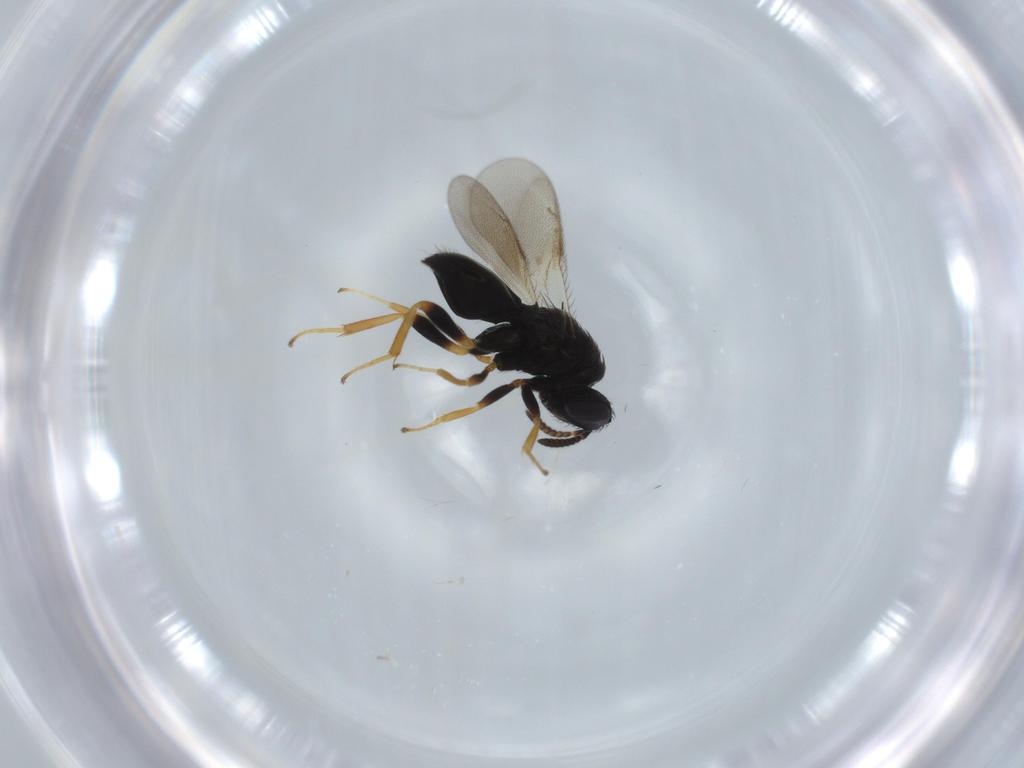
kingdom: Animalia
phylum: Arthropoda
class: Insecta
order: Hymenoptera
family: Pteromalidae
